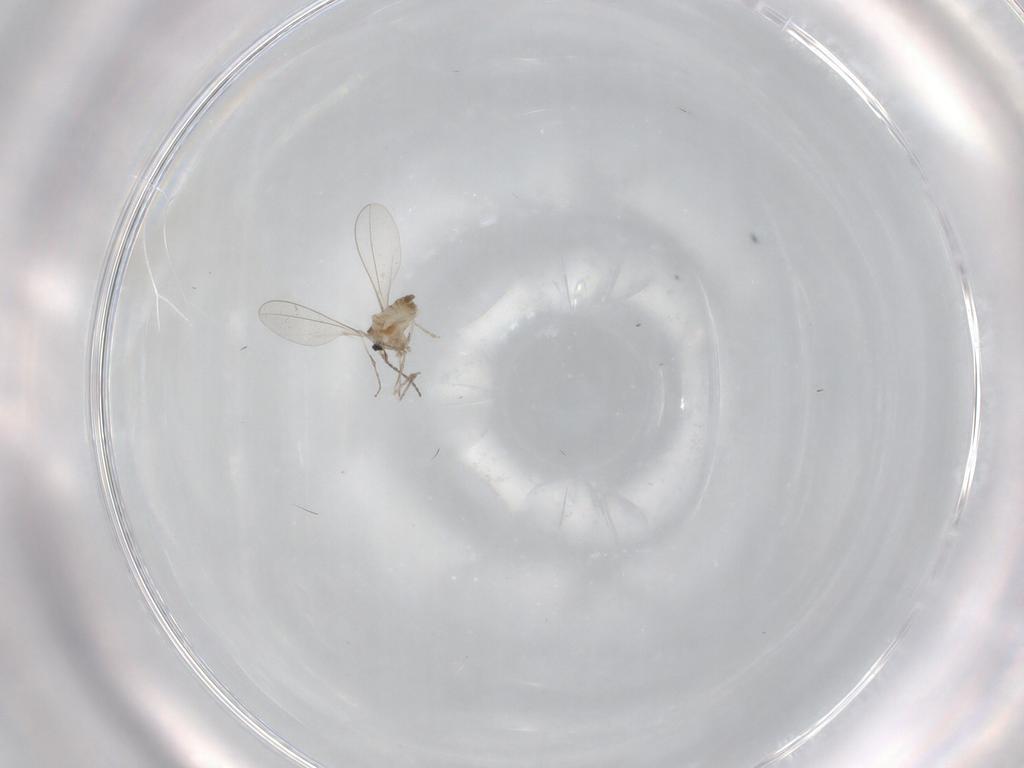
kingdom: Animalia
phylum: Arthropoda
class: Insecta
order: Diptera
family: Cecidomyiidae
